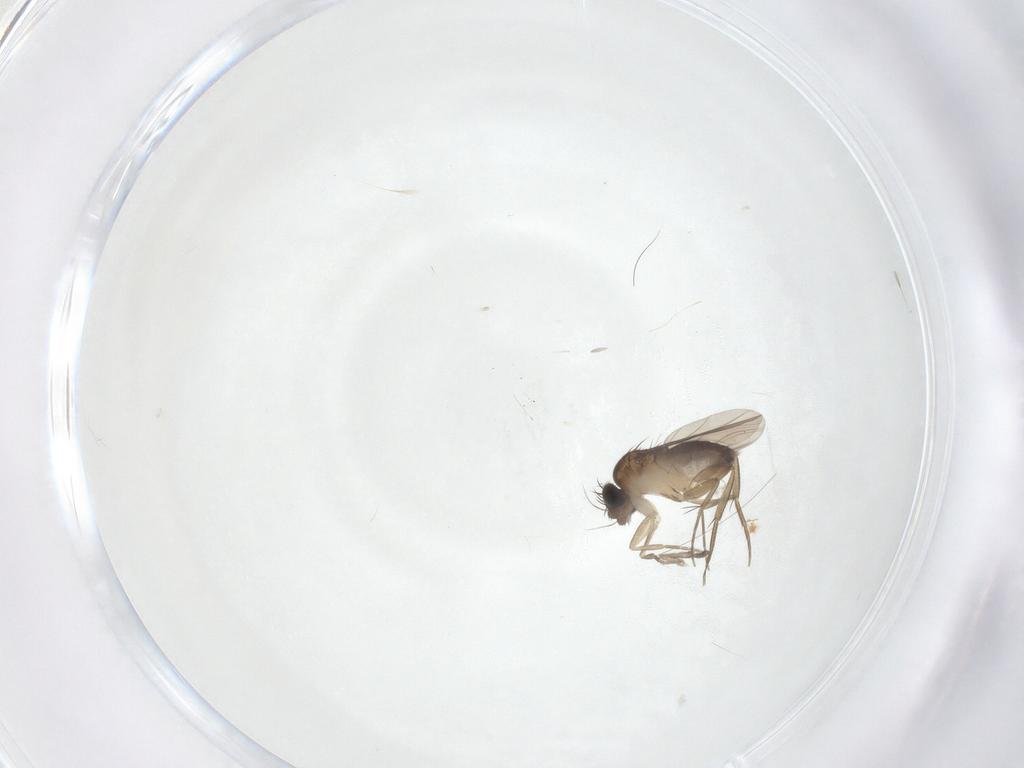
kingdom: Animalia
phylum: Arthropoda
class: Insecta
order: Diptera
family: Psychodidae
